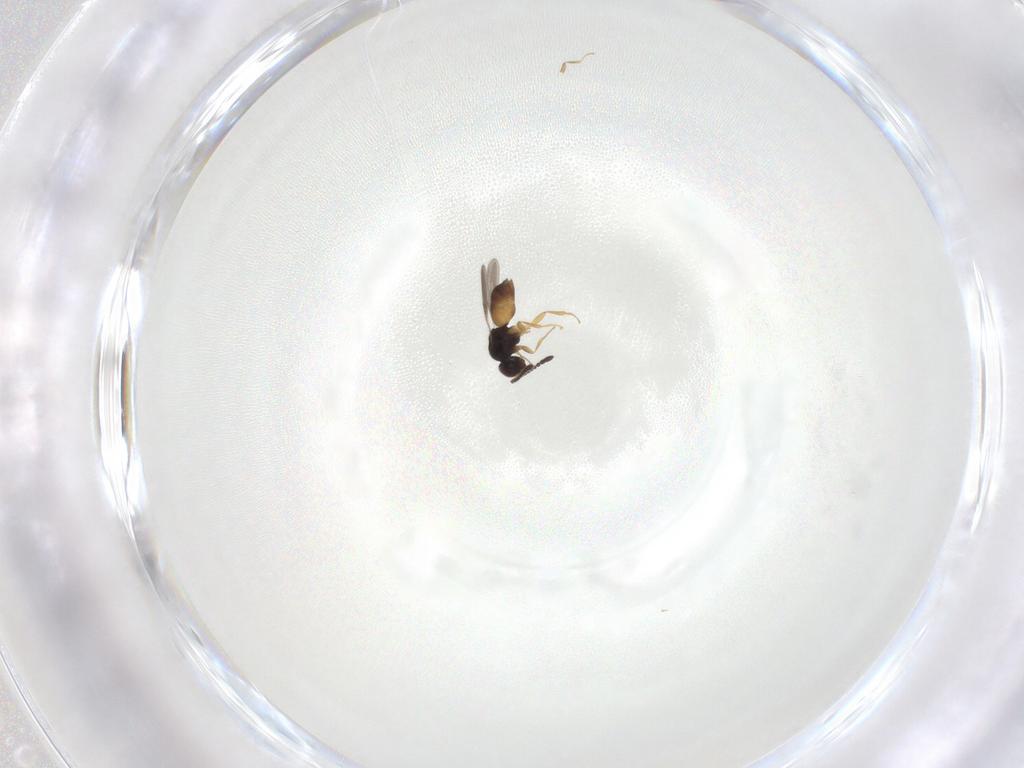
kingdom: Animalia
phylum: Arthropoda
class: Insecta
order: Hymenoptera
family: Encyrtidae
